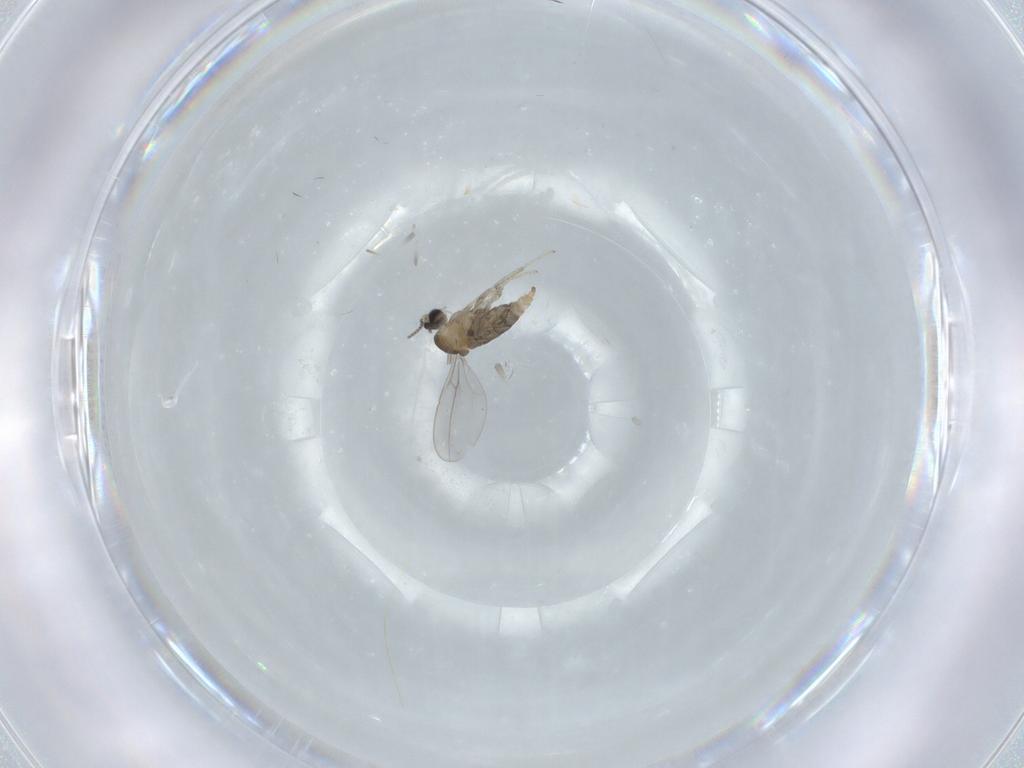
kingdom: Animalia
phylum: Arthropoda
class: Insecta
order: Diptera
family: Cecidomyiidae
